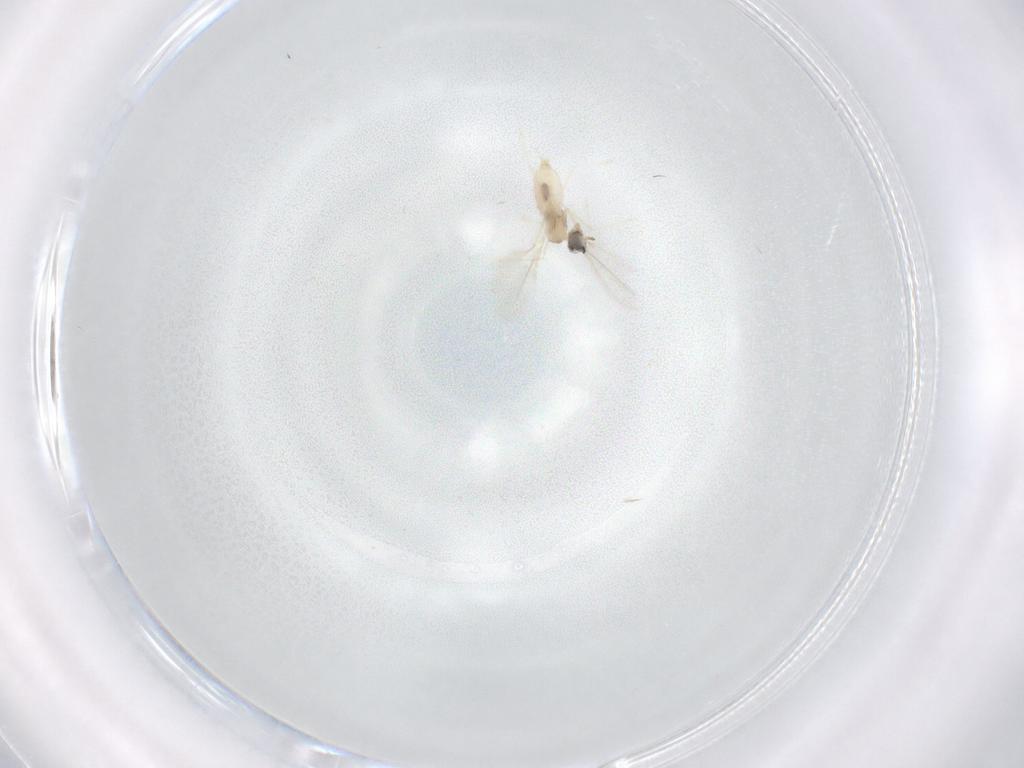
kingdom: Animalia
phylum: Arthropoda
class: Insecta
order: Diptera
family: Cecidomyiidae
